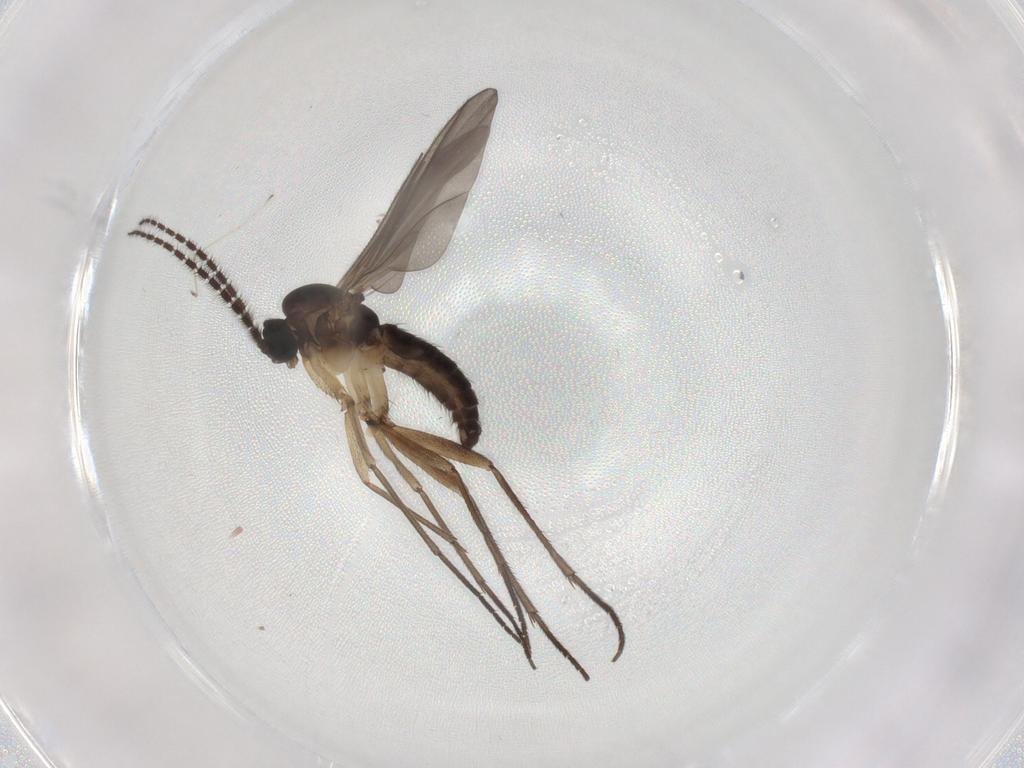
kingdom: Animalia
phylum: Arthropoda
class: Insecta
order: Diptera
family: Sciaridae
